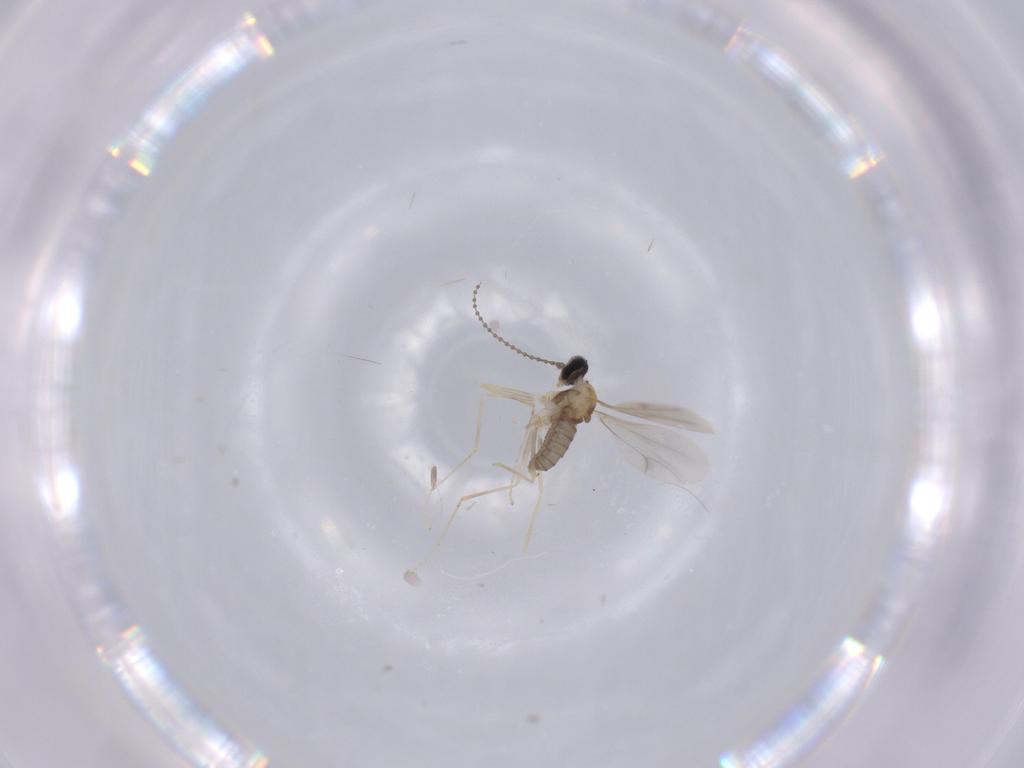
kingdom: Animalia
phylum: Arthropoda
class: Insecta
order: Diptera
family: Cecidomyiidae
